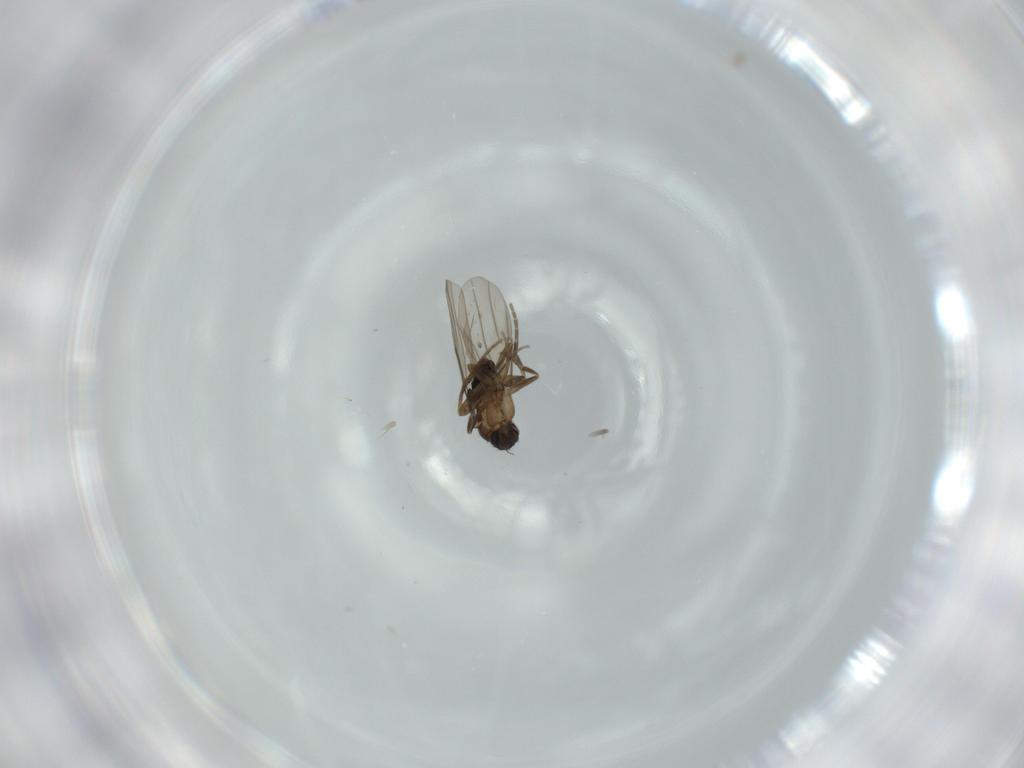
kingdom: Animalia
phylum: Arthropoda
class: Insecta
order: Diptera
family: Phoridae
